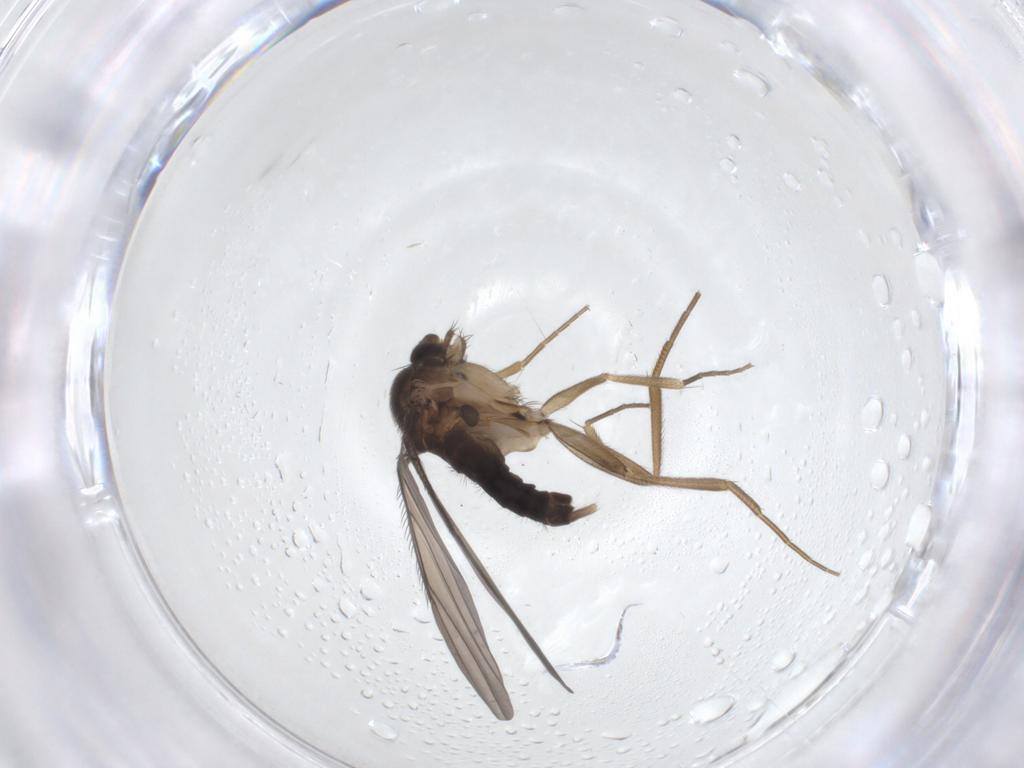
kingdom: Animalia
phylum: Arthropoda
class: Insecta
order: Diptera
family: Phoridae
